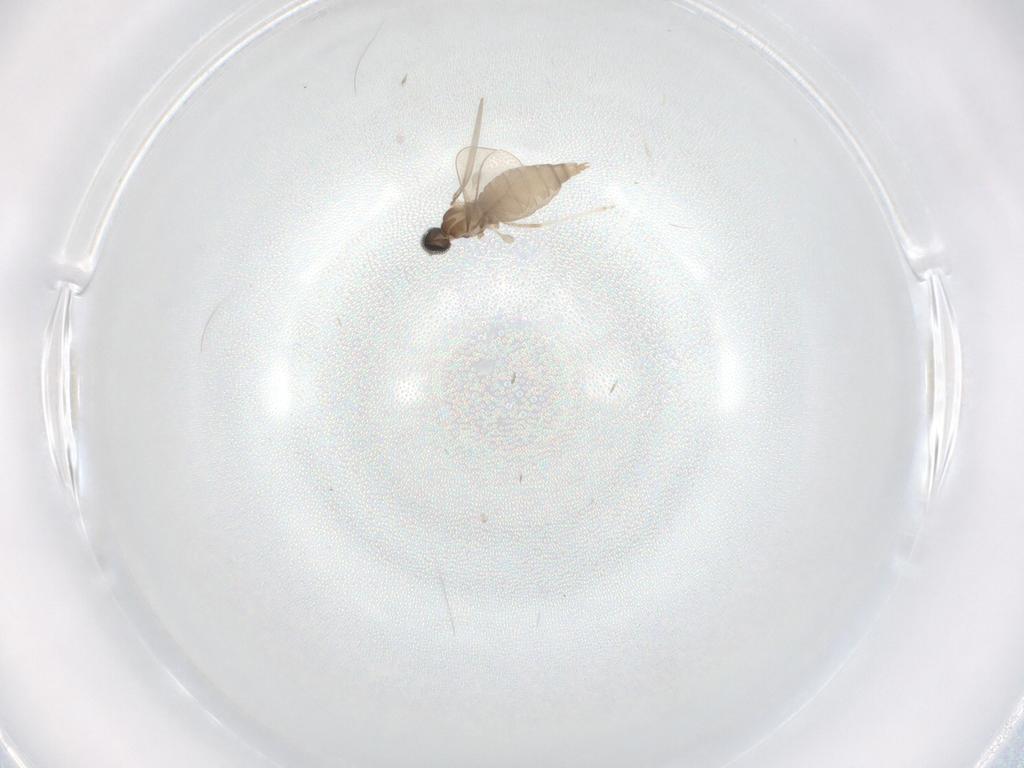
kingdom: Animalia
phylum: Arthropoda
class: Insecta
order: Diptera
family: Cecidomyiidae
